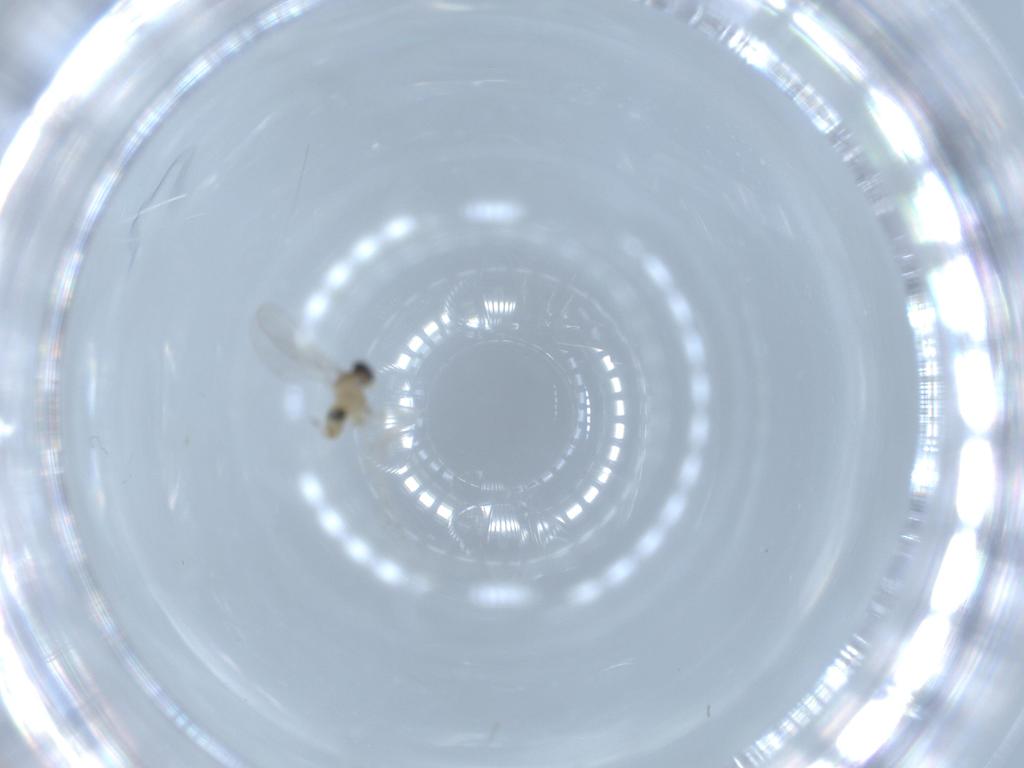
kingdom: Animalia
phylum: Arthropoda
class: Insecta
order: Diptera
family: Cecidomyiidae
